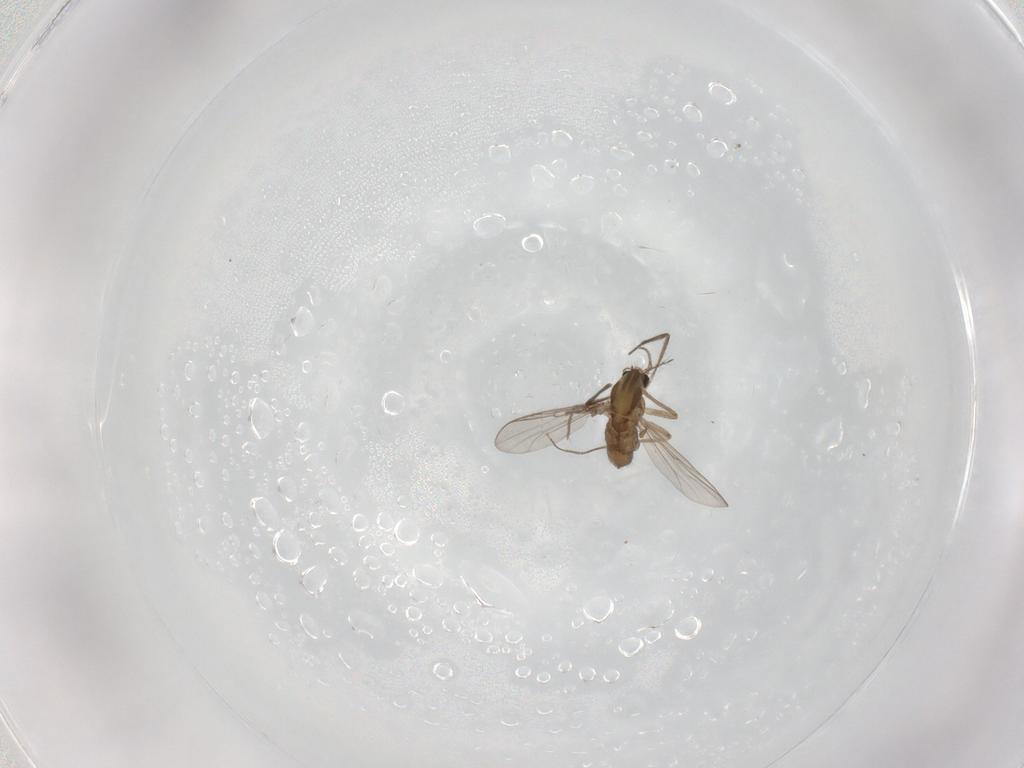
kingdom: Animalia
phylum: Arthropoda
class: Insecta
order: Diptera
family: Chironomidae
